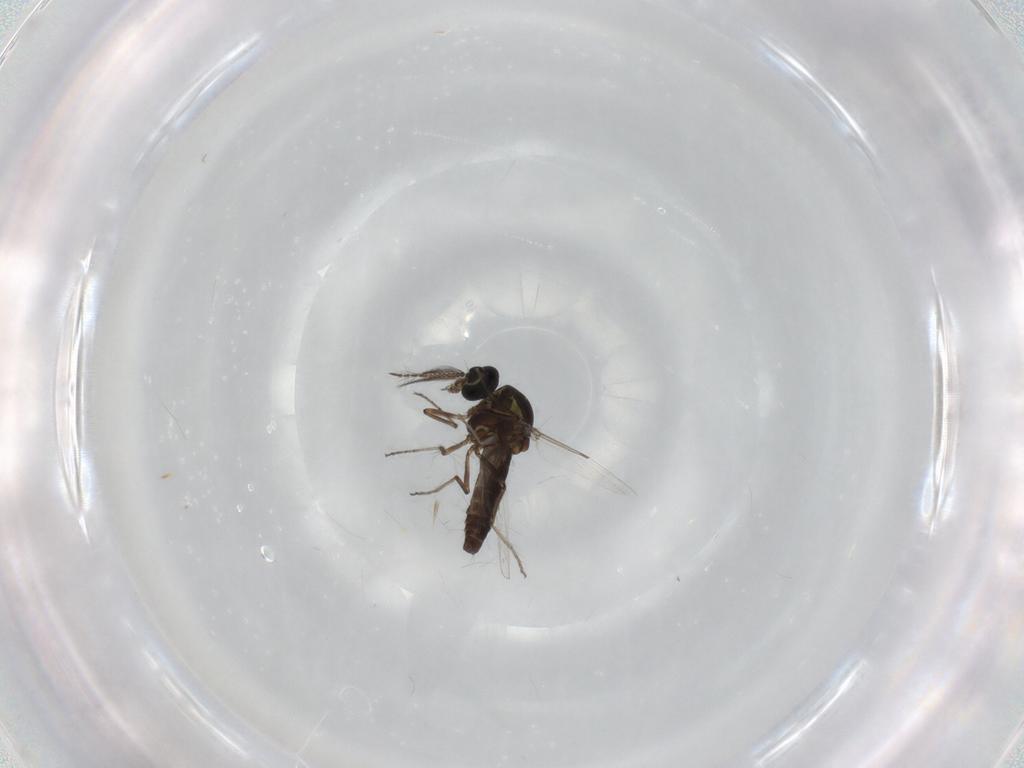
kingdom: Animalia
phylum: Arthropoda
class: Insecta
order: Diptera
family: Ceratopogonidae
